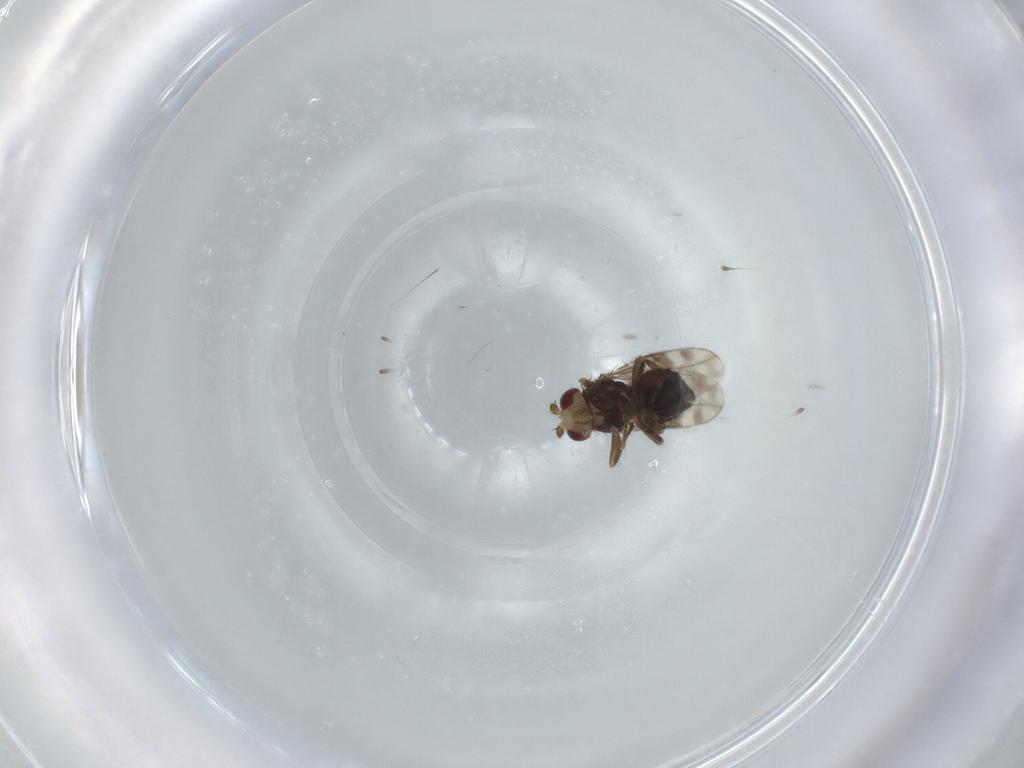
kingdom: Animalia
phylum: Arthropoda
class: Insecta
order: Diptera
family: Sphaeroceridae
